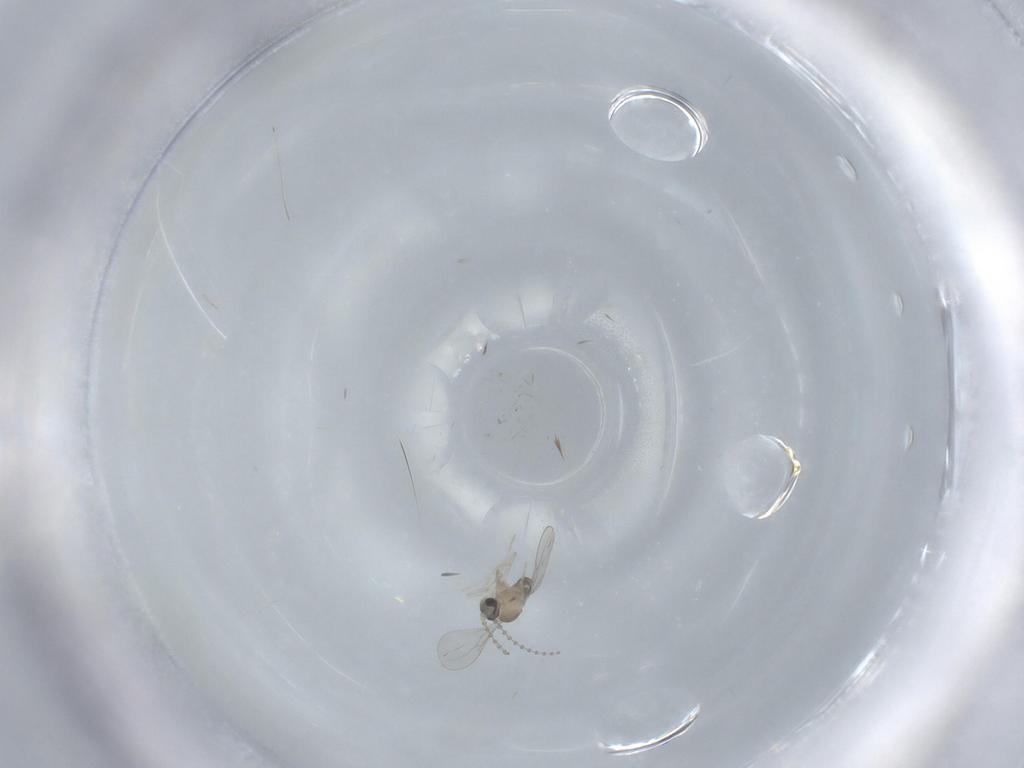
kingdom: Animalia
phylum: Arthropoda
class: Insecta
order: Diptera
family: Cecidomyiidae
